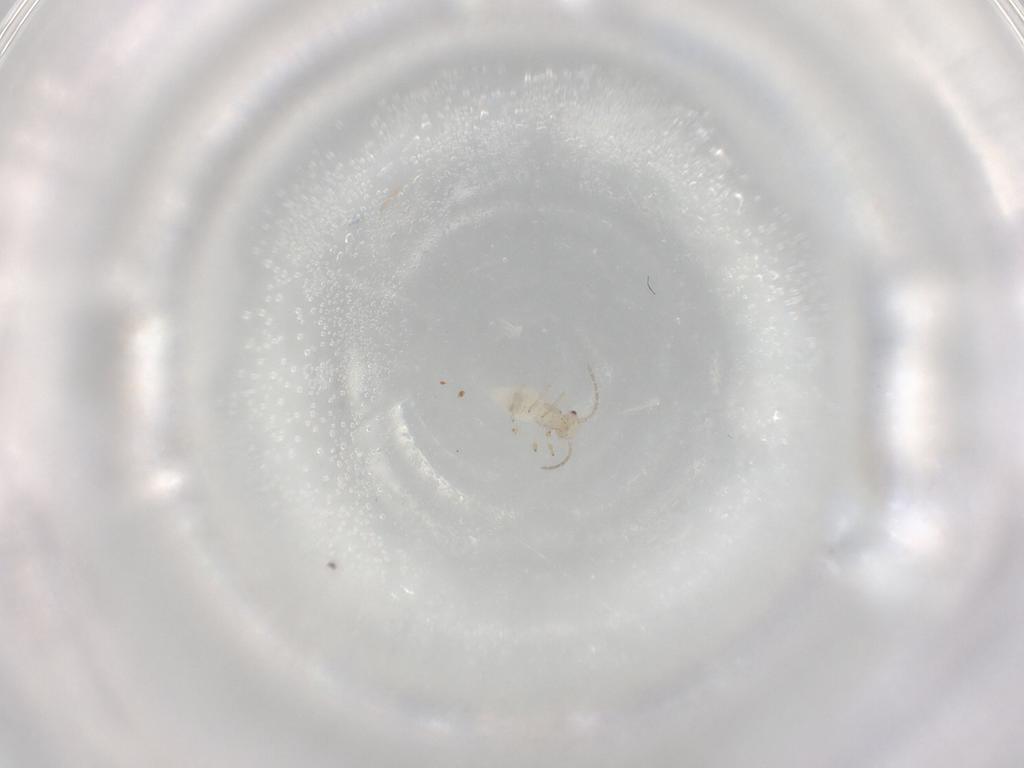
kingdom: Animalia
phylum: Arthropoda
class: Insecta
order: Psocodea
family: Amphipsocidae
